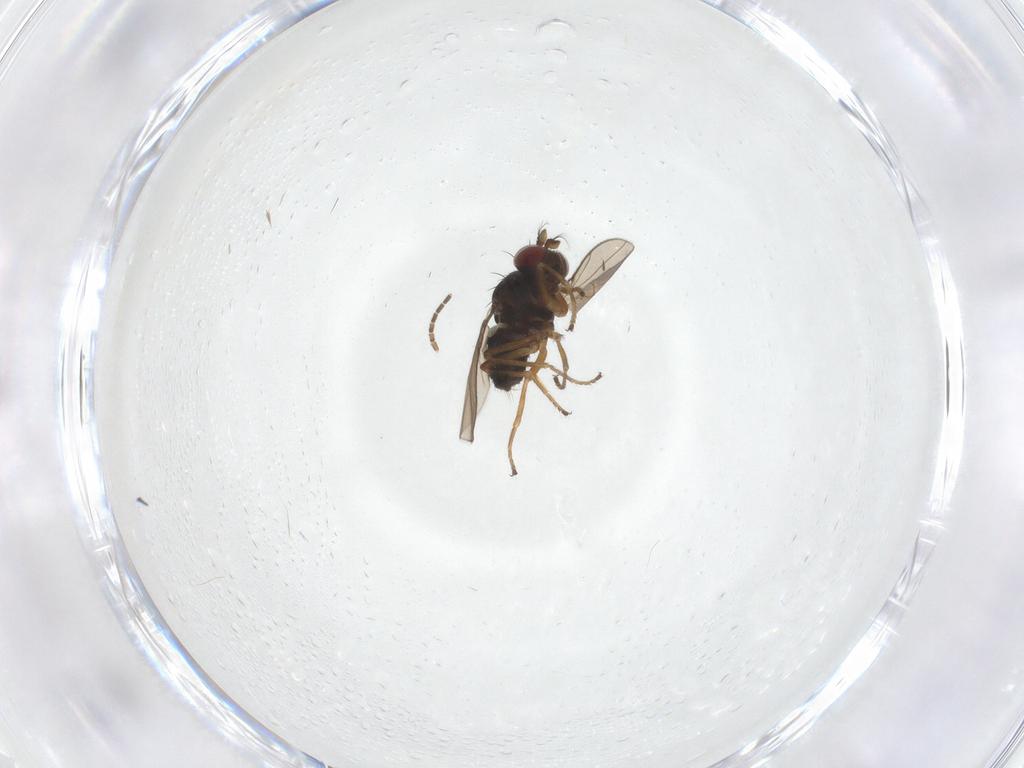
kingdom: Animalia
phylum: Arthropoda
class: Insecta
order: Diptera
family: Ephydridae
